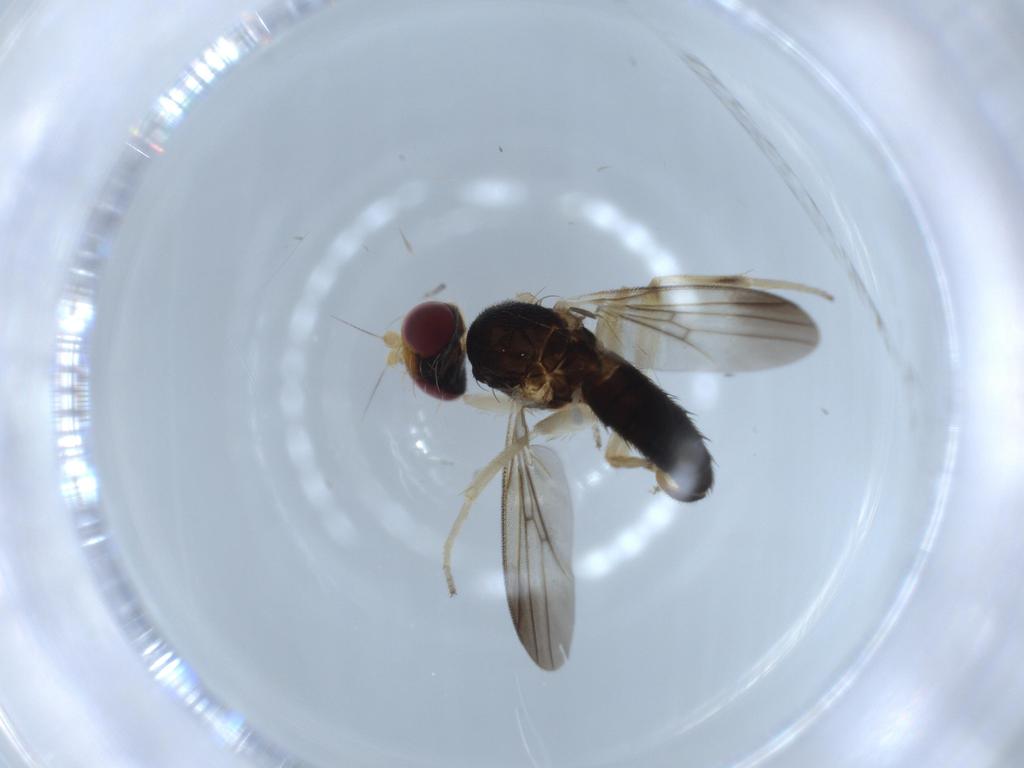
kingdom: Animalia
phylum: Arthropoda
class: Insecta
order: Diptera
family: Clusiidae
